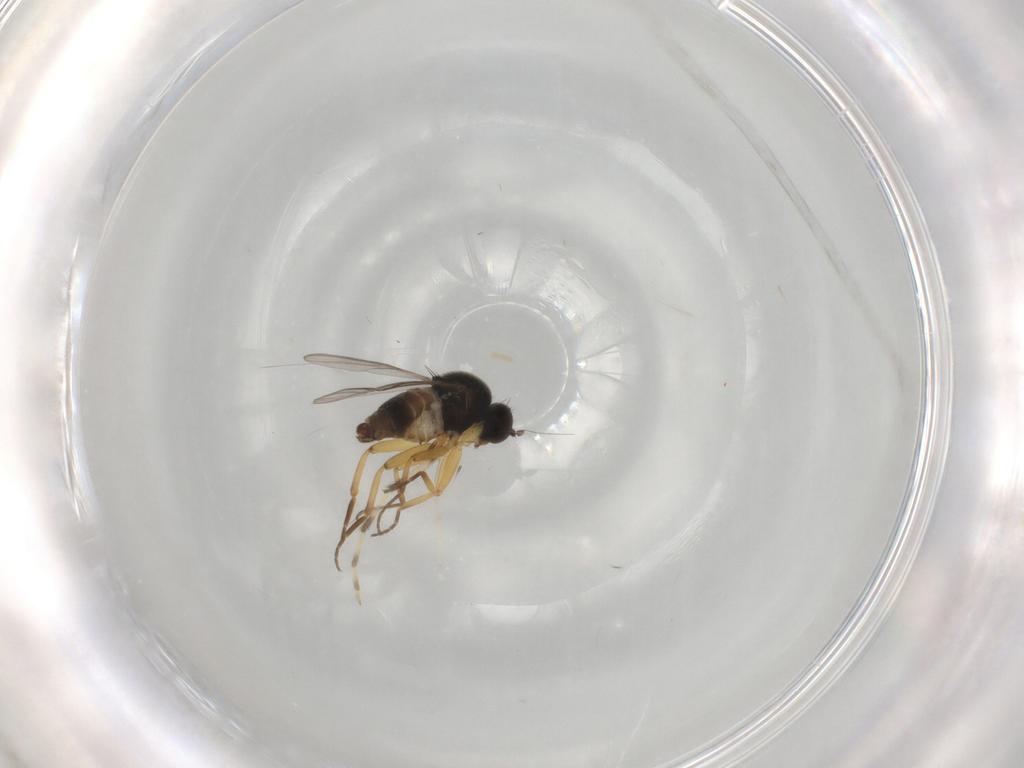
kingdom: Animalia
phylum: Arthropoda
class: Insecta
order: Diptera
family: Hybotidae
